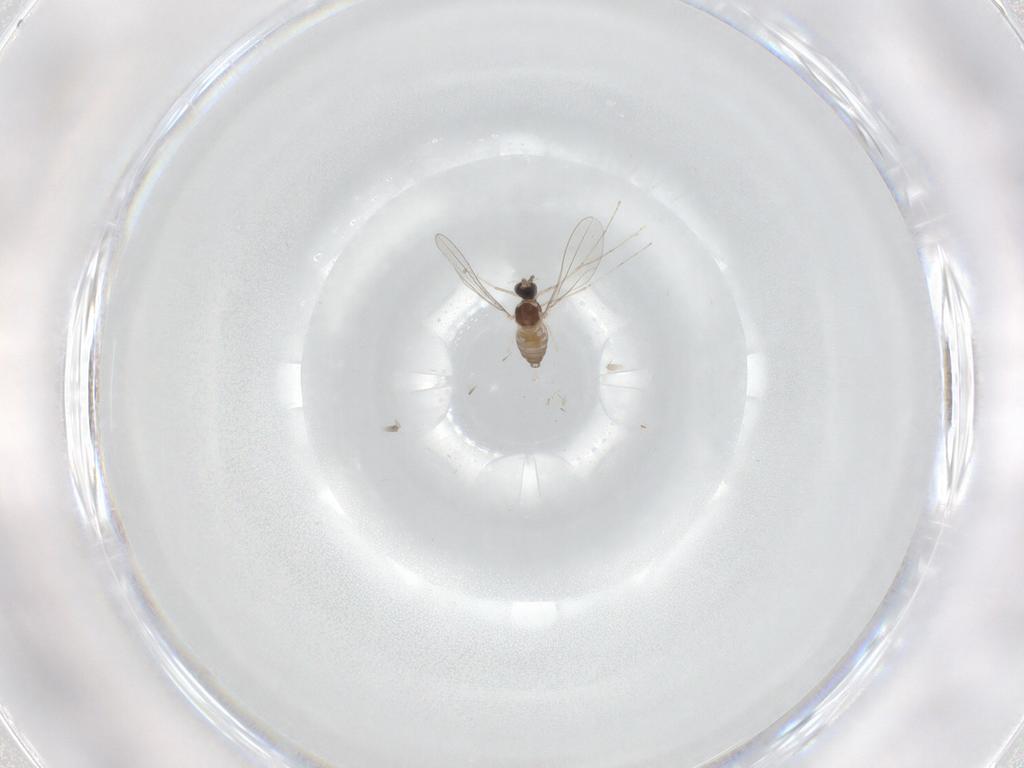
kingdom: Animalia
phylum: Arthropoda
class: Insecta
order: Diptera
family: Cecidomyiidae
